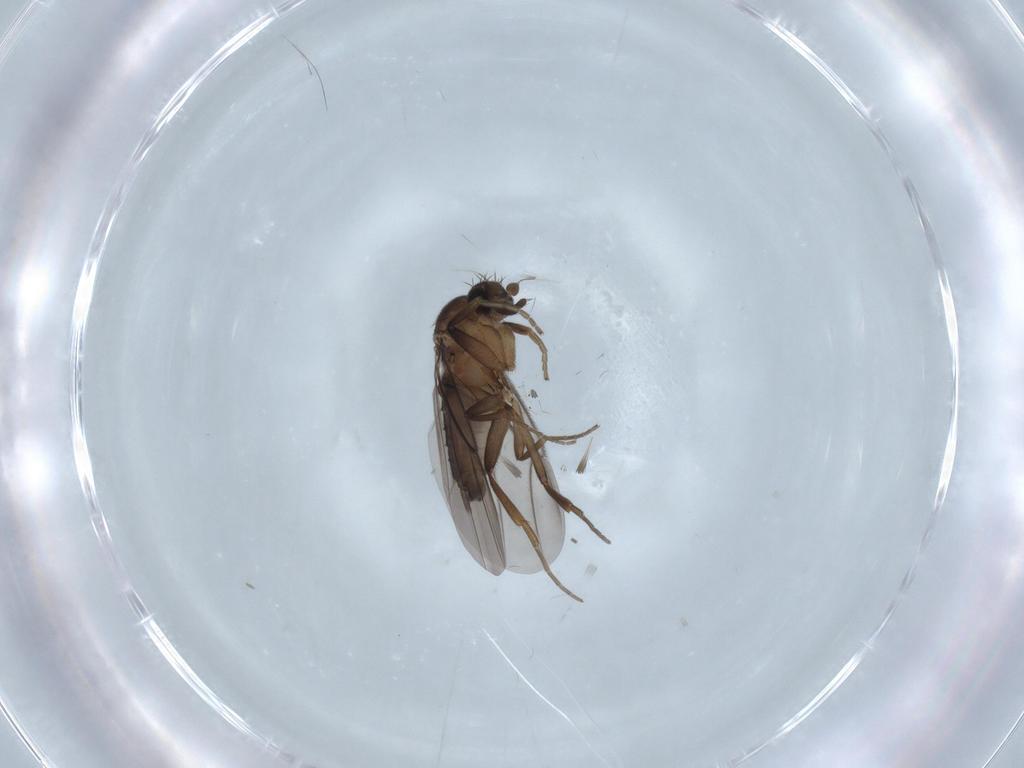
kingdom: Animalia
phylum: Arthropoda
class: Insecta
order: Diptera
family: Phoridae
